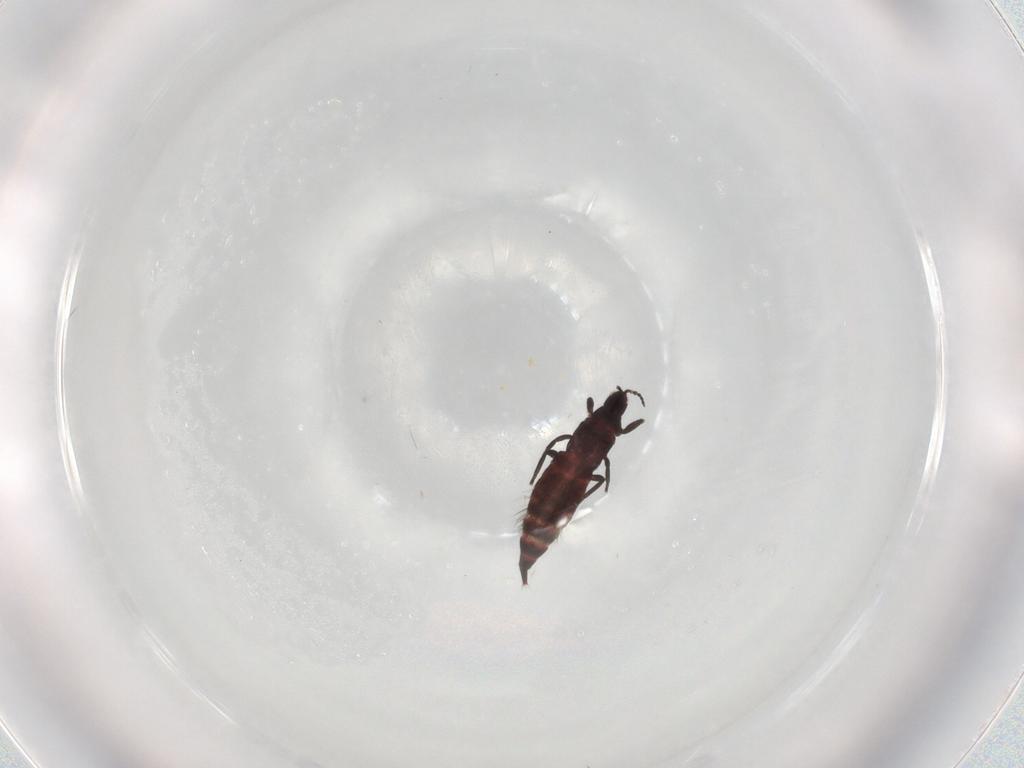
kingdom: Animalia
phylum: Arthropoda
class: Insecta
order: Thysanoptera
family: Phlaeothripidae
